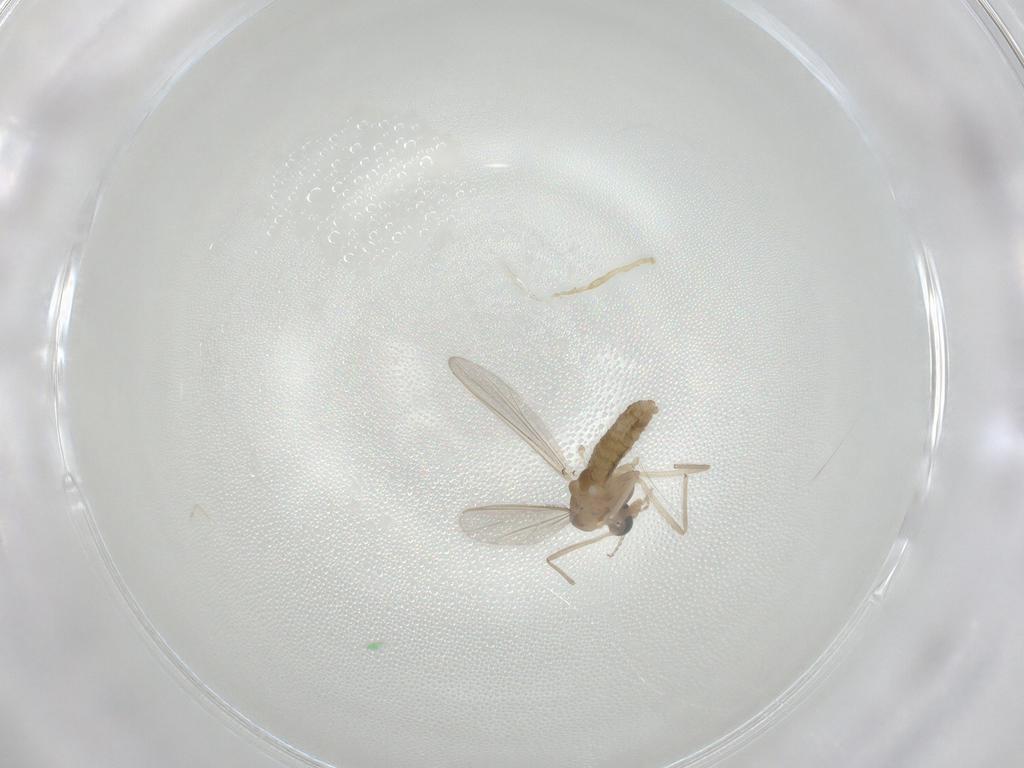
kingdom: Animalia
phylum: Arthropoda
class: Insecta
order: Diptera
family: Chironomidae
